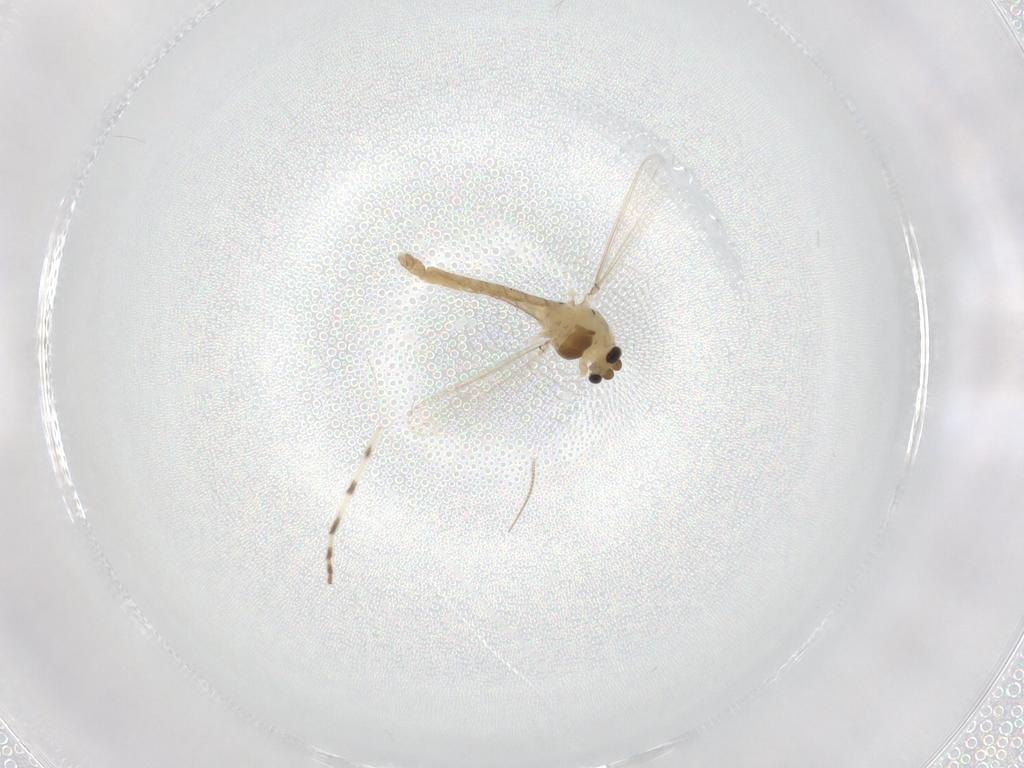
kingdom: Animalia
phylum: Arthropoda
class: Insecta
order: Diptera
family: Chironomidae
